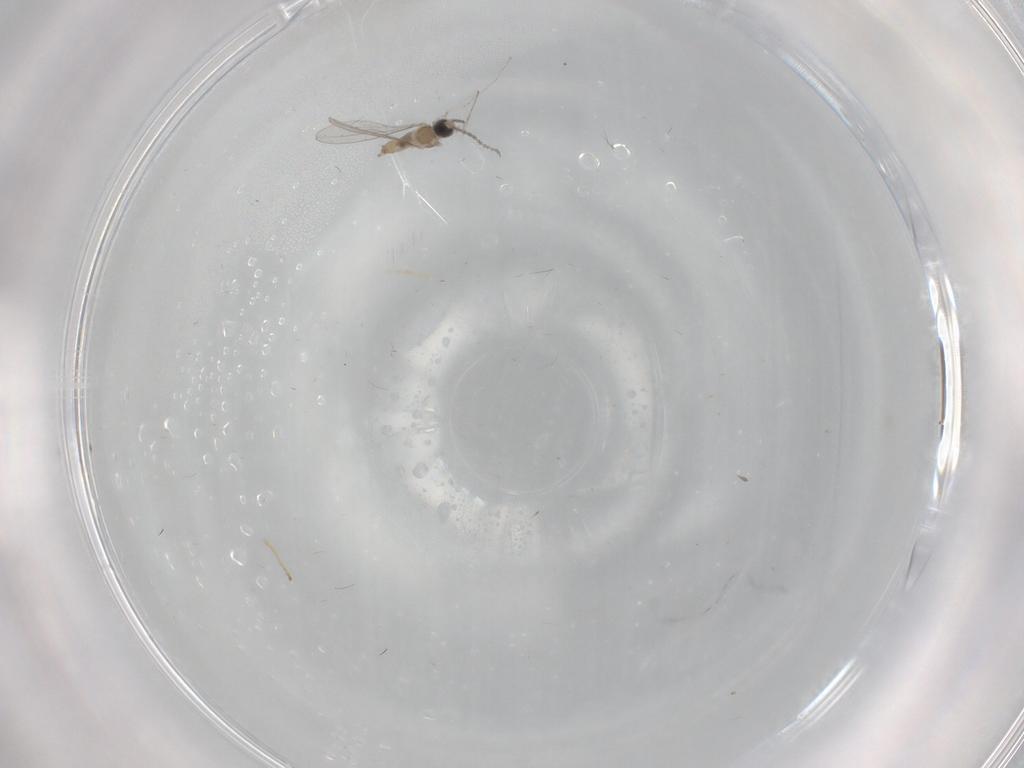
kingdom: Animalia
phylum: Arthropoda
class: Insecta
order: Diptera
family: Cecidomyiidae
